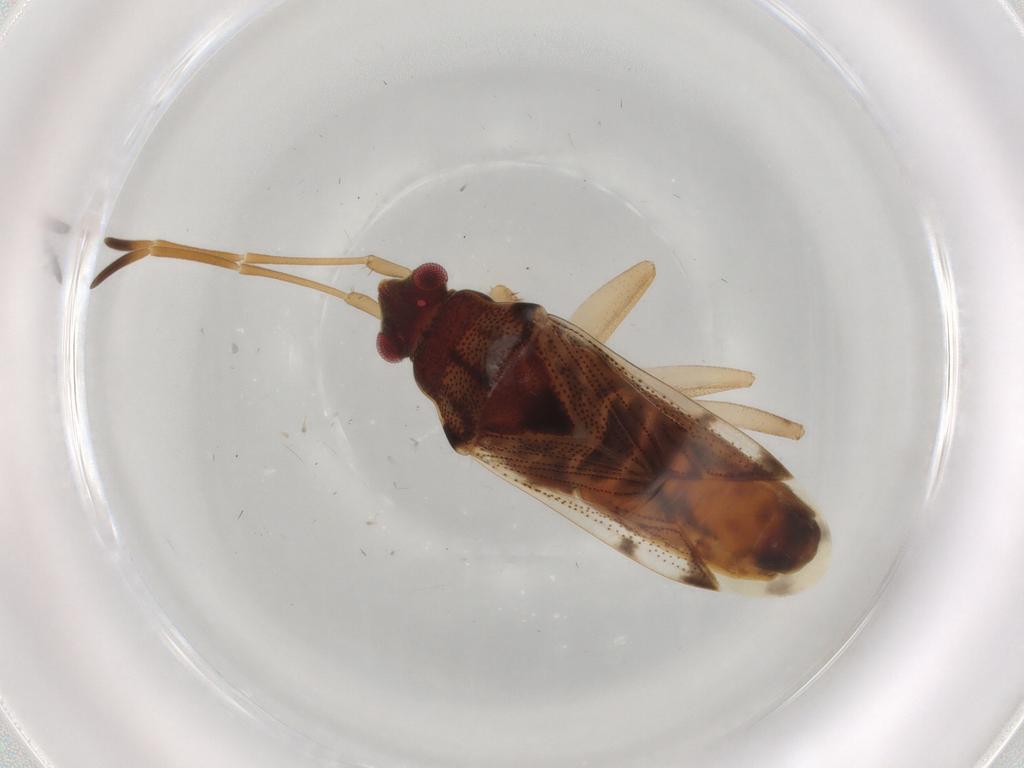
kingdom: Animalia
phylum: Arthropoda
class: Insecta
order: Hemiptera
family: Rhyparochromidae
